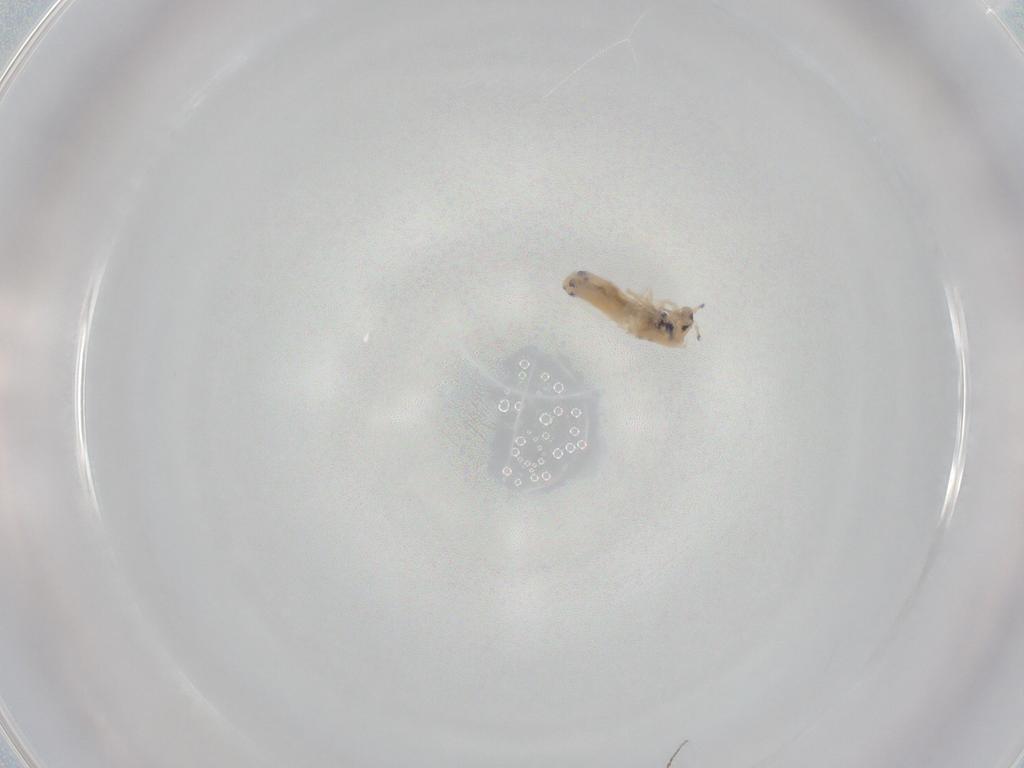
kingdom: Animalia
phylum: Arthropoda
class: Collembola
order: Entomobryomorpha
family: Entomobryidae
